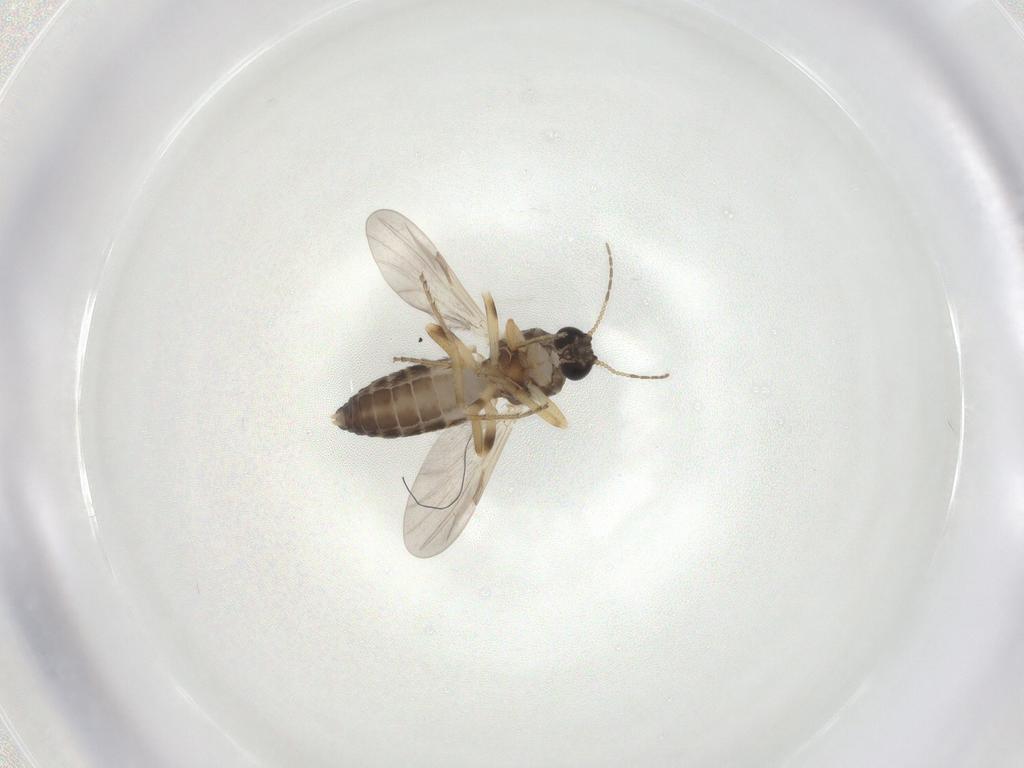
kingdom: Animalia
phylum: Arthropoda
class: Insecta
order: Diptera
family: Ceratopogonidae
